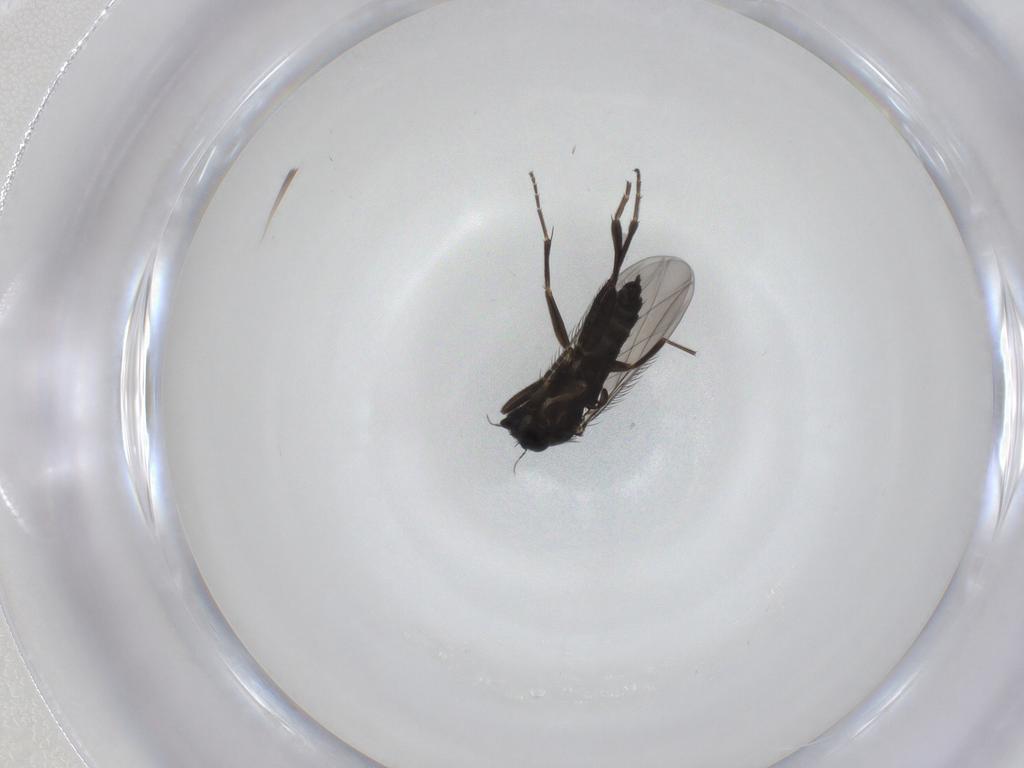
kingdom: Animalia
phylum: Arthropoda
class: Insecta
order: Diptera
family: Phoridae
